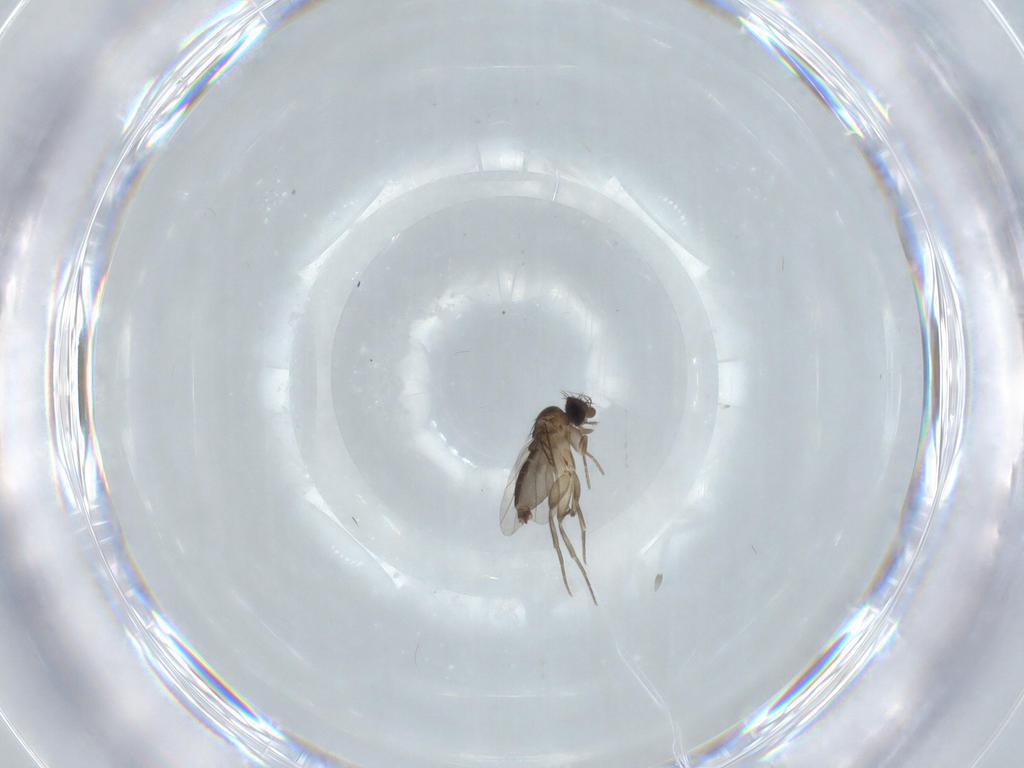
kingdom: Animalia
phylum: Arthropoda
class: Insecta
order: Diptera
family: Phoridae
